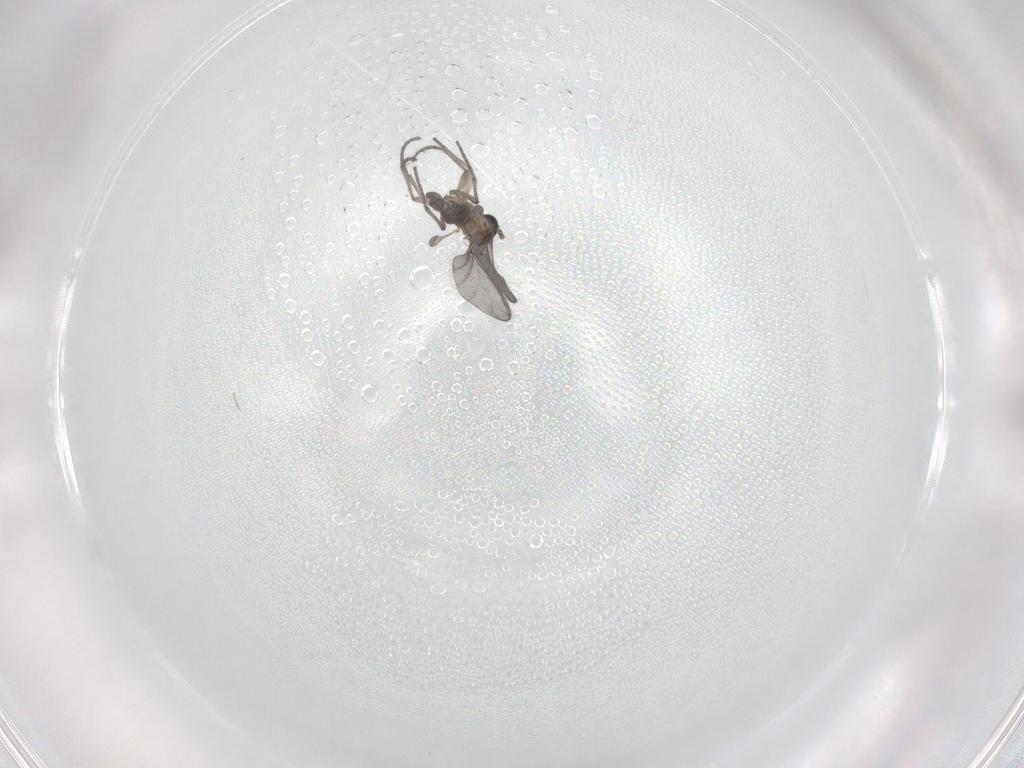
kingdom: Animalia
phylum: Arthropoda
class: Insecta
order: Diptera
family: Sciaridae
